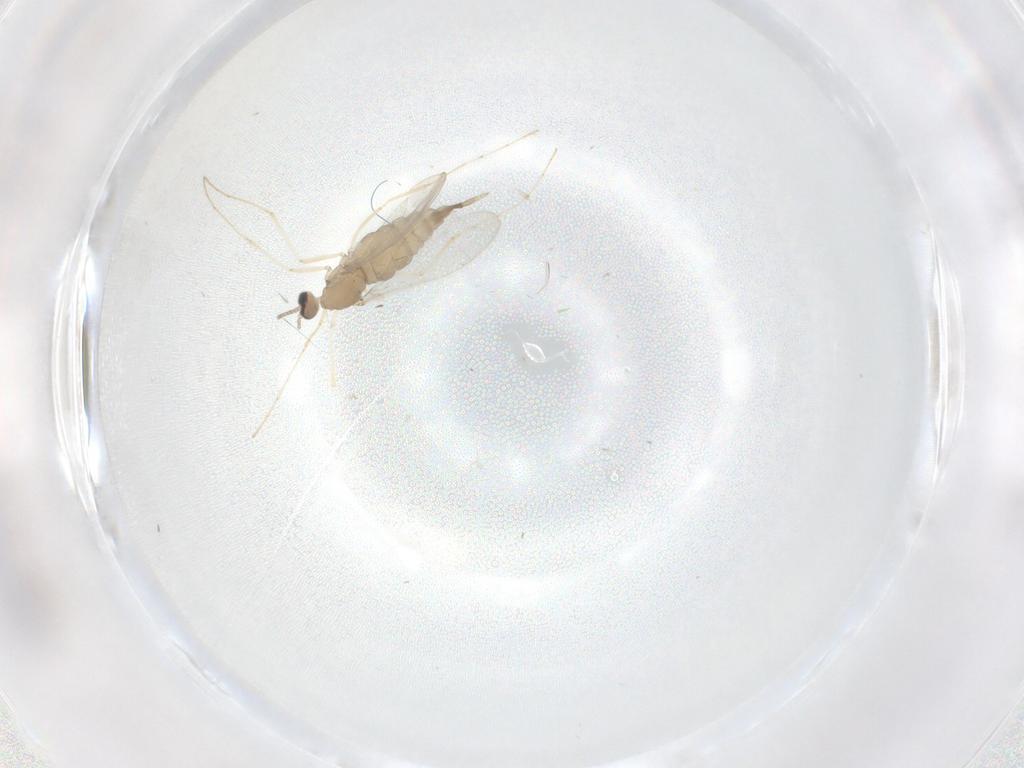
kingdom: Animalia
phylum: Arthropoda
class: Insecta
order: Diptera
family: Cecidomyiidae
